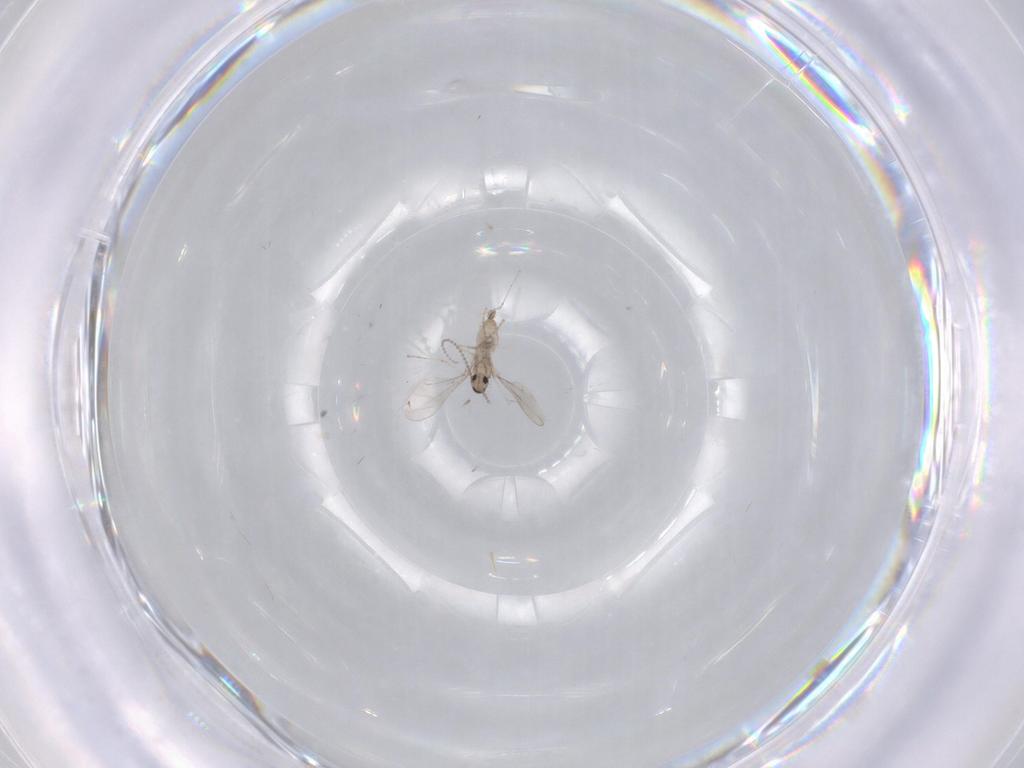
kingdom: Animalia
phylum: Arthropoda
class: Insecta
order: Diptera
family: Cecidomyiidae
